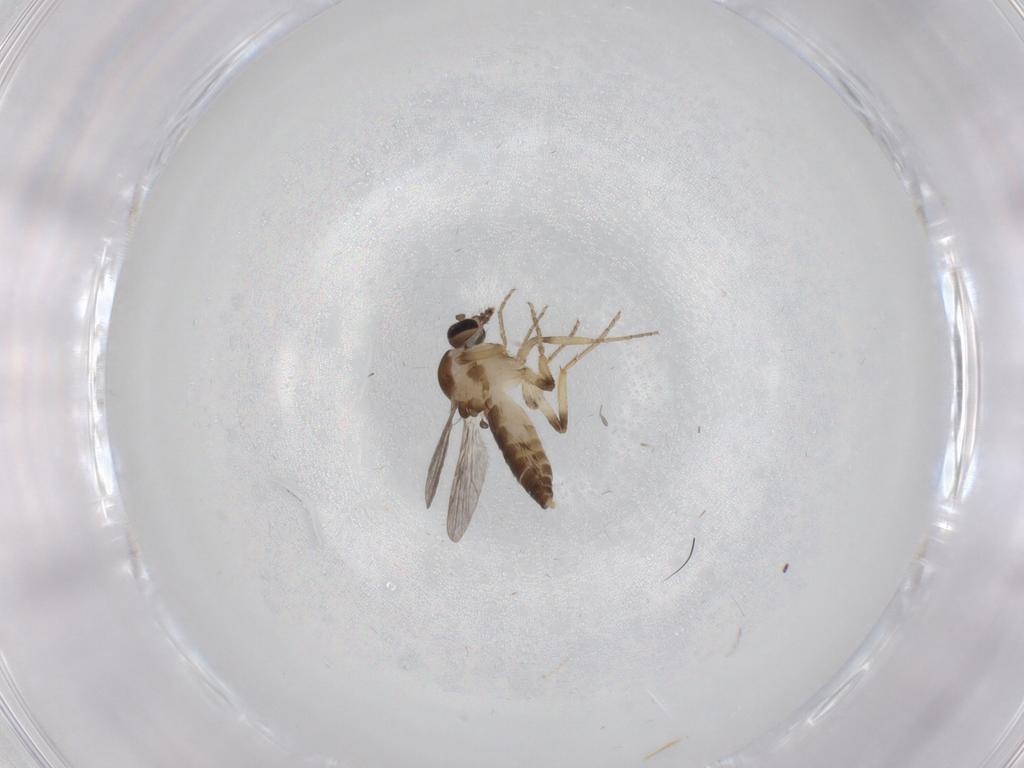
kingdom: Animalia
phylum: Arthropoda
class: Insecta
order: Diptera
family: Ceratopogonidae
